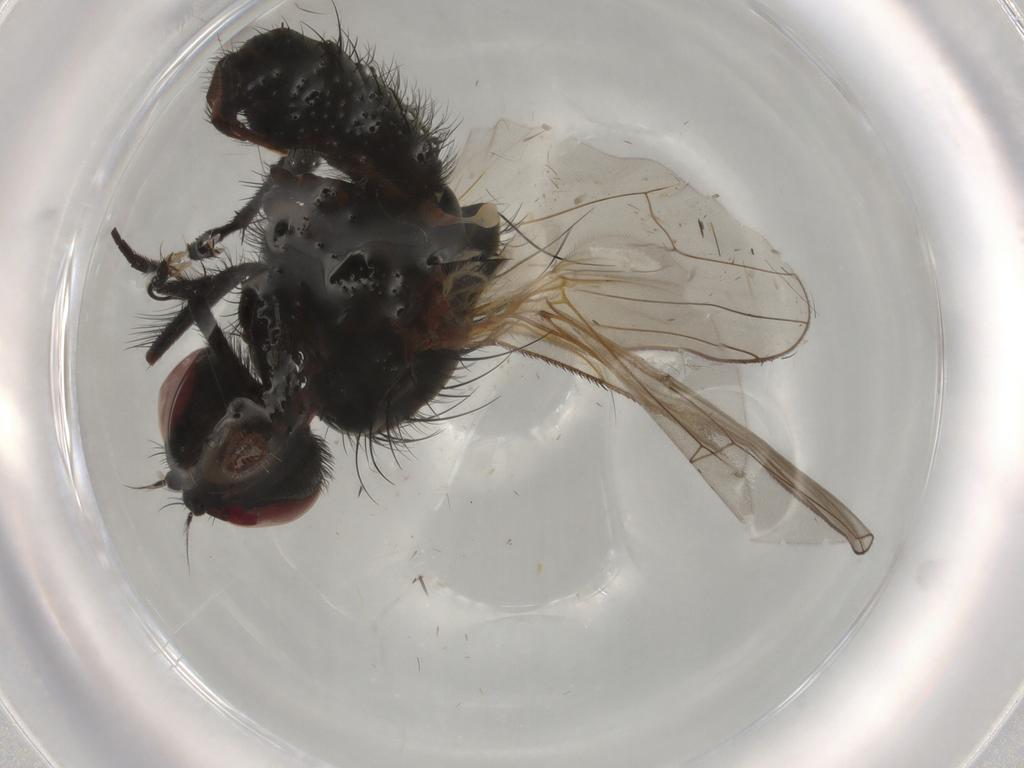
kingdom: Animalia
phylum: Arthropoda
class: Insecta
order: Diptera
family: Anthomyiidae
